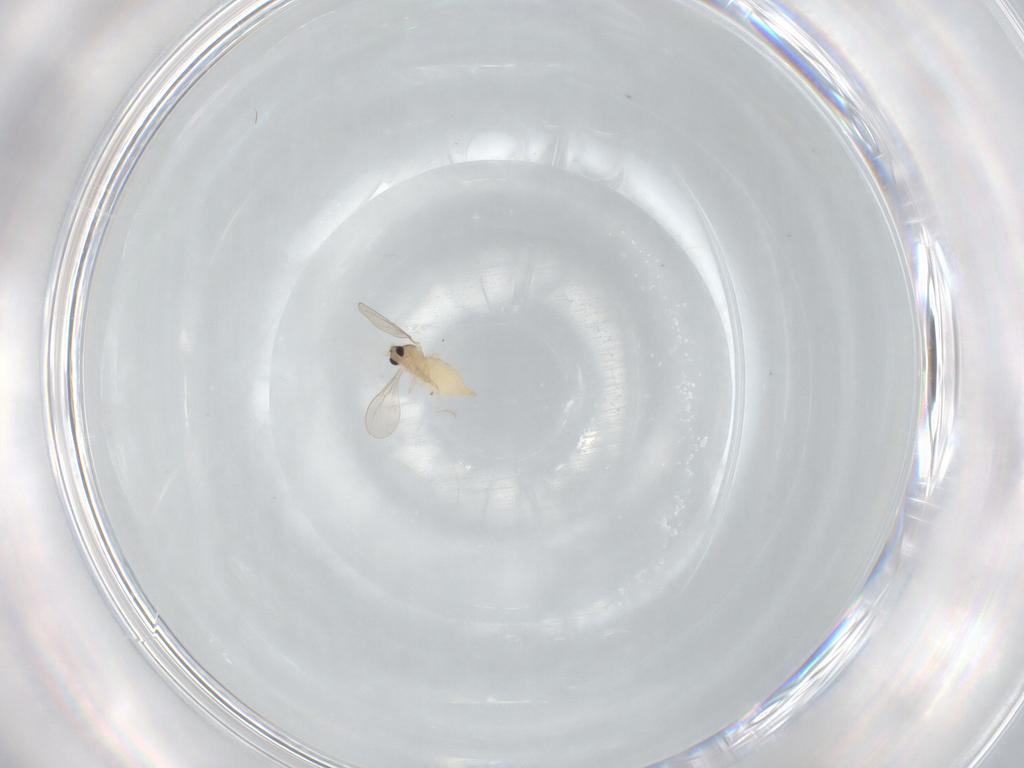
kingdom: Animalia
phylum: Arthropoda
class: Insecta
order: Diptera
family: Cecidomyiidae
